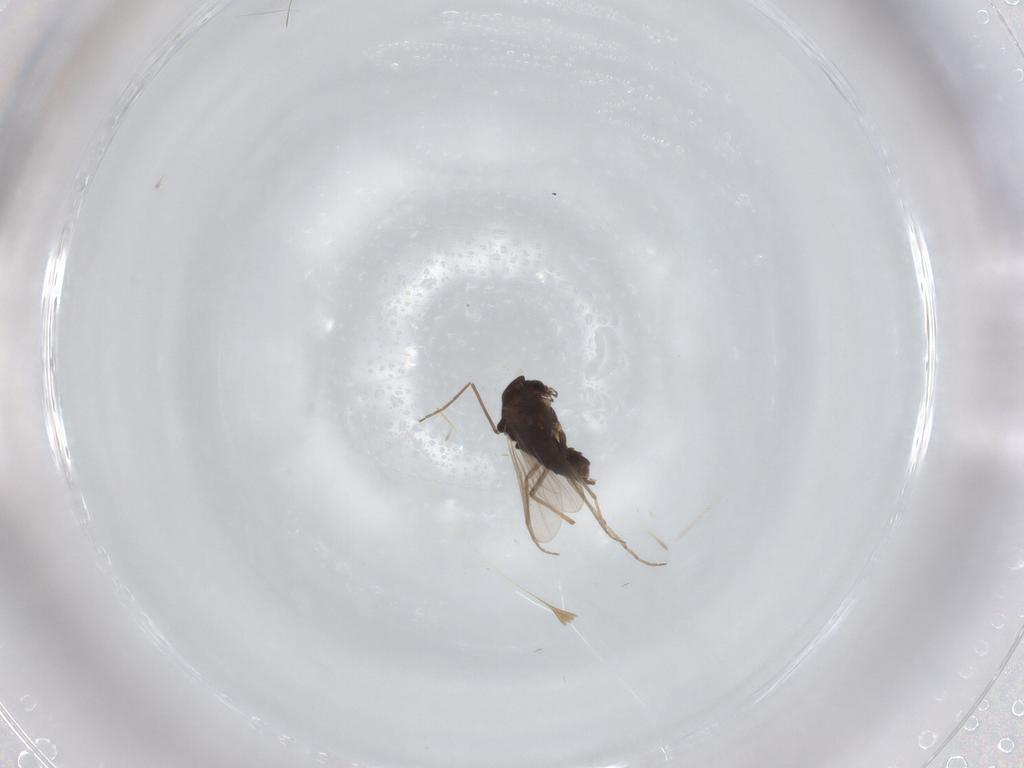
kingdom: Animalia
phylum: Arthropoda
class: Insecta
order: Diptera
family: Chironomidae
